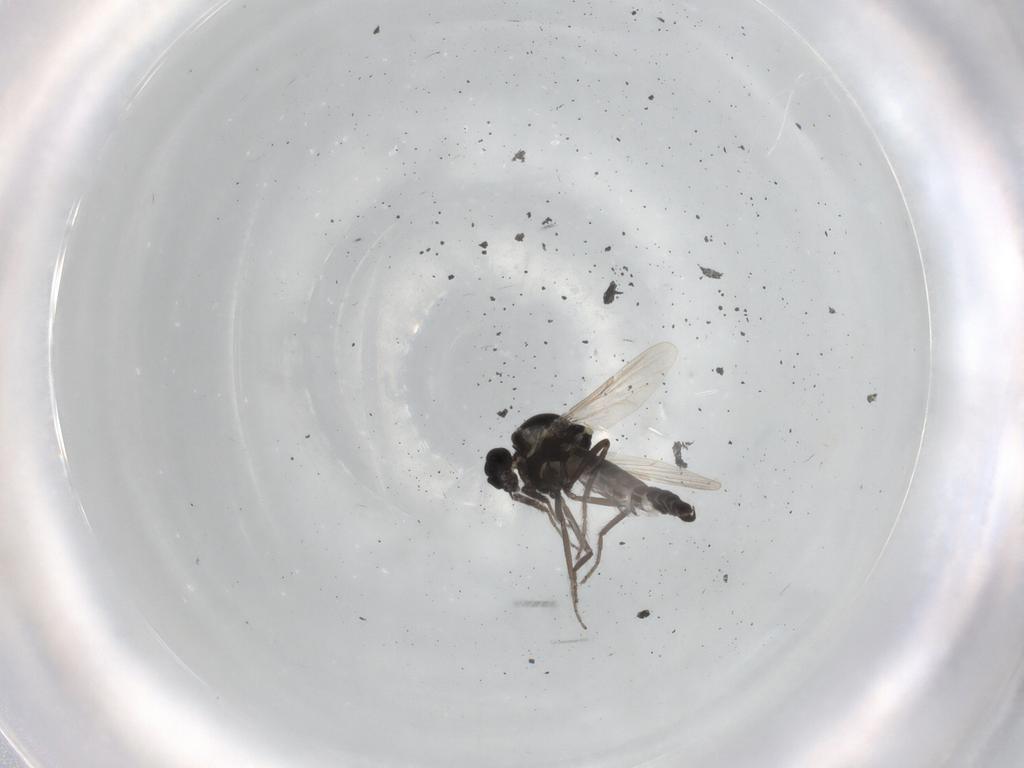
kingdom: Animalia
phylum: Arthropoda
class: Insecta
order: Diptera
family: Ceratopogonidae
